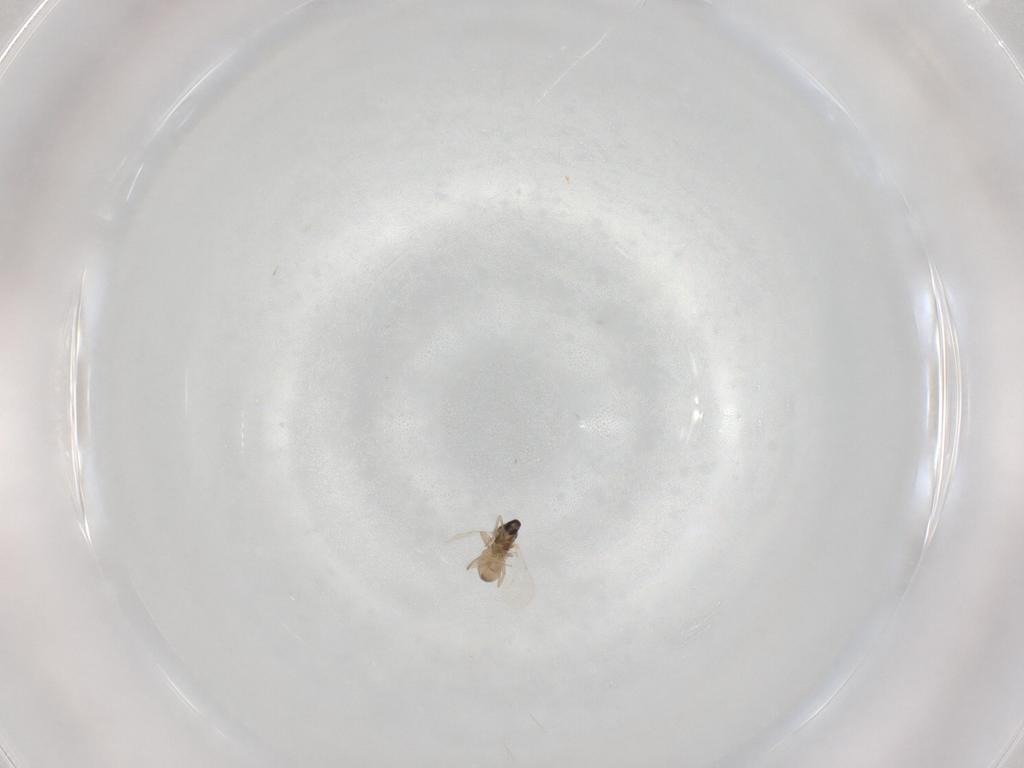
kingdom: Animalia
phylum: Arthropoda
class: Insecta
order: Diptera
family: Cecidomyiidae
